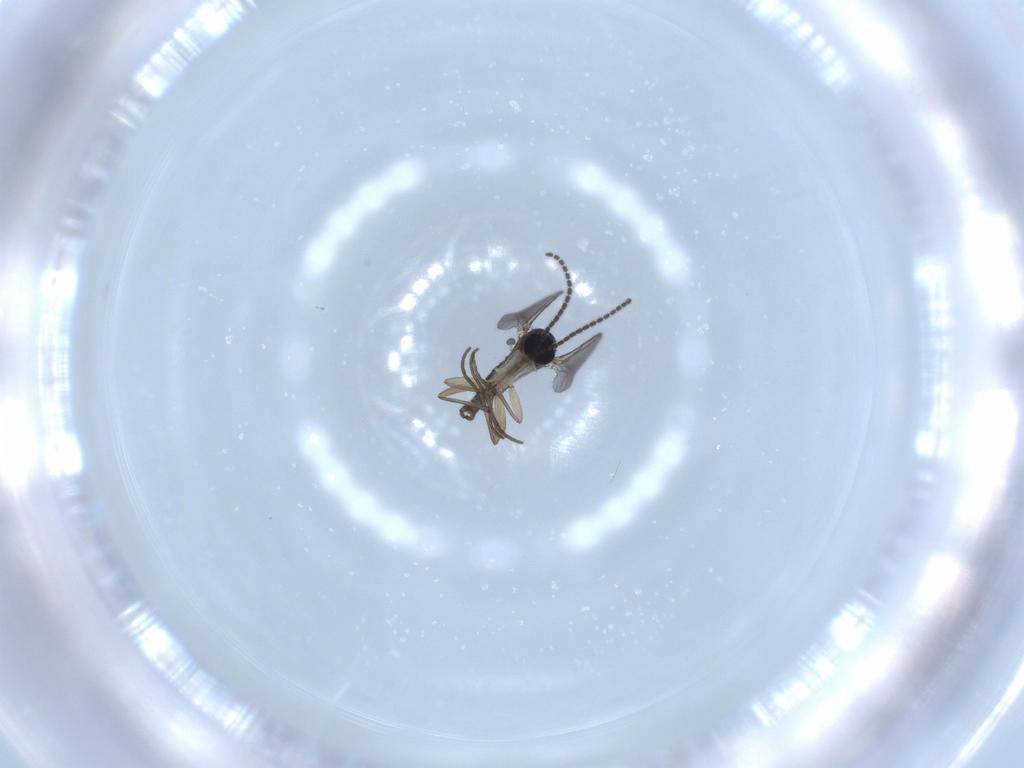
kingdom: Animalia
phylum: Arthropoda
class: Insecta
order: Diptera
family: Sciaridae
